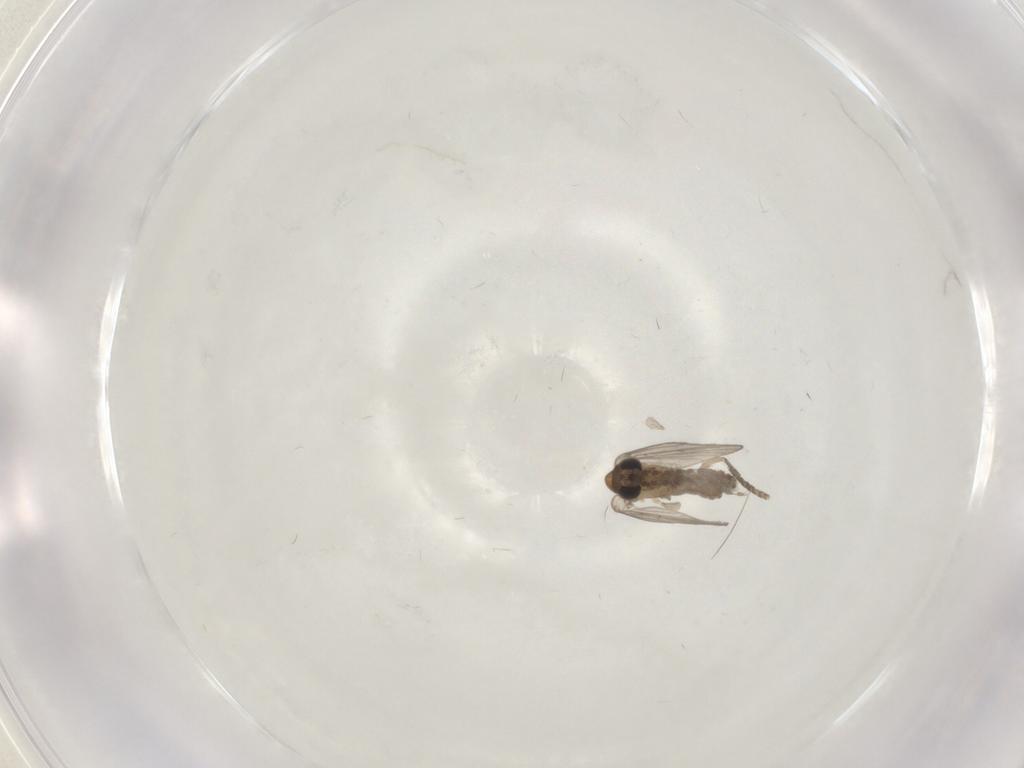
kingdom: Animalia
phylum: Arthropoda
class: Insecta
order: Diptera
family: Psychodidae
